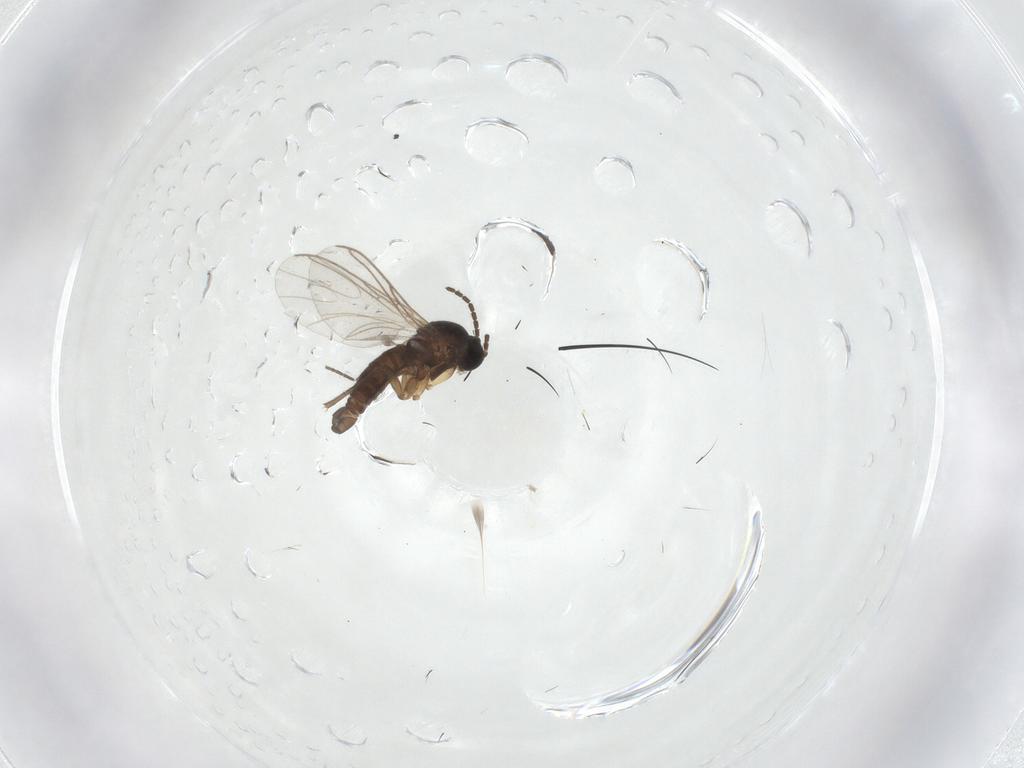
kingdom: Animalia
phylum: Arthropoda
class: Insecta
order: Diptera
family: Sciaridae
